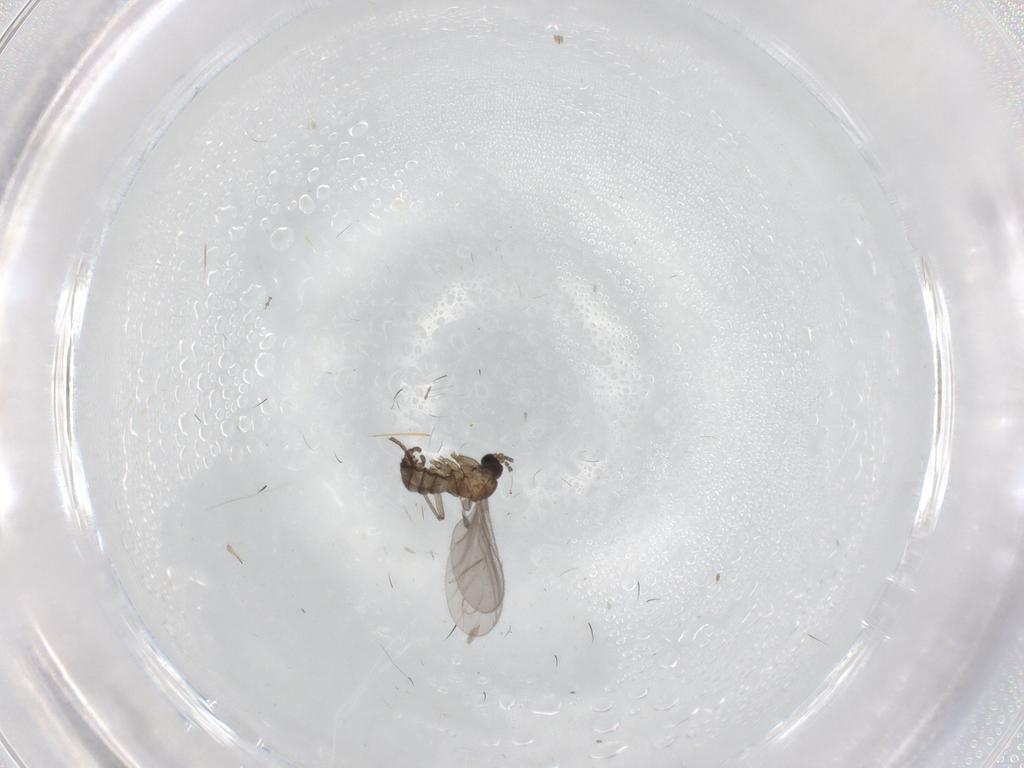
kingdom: Animalia
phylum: Arthropoda
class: Insecta
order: Diptera
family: Sciaridae
